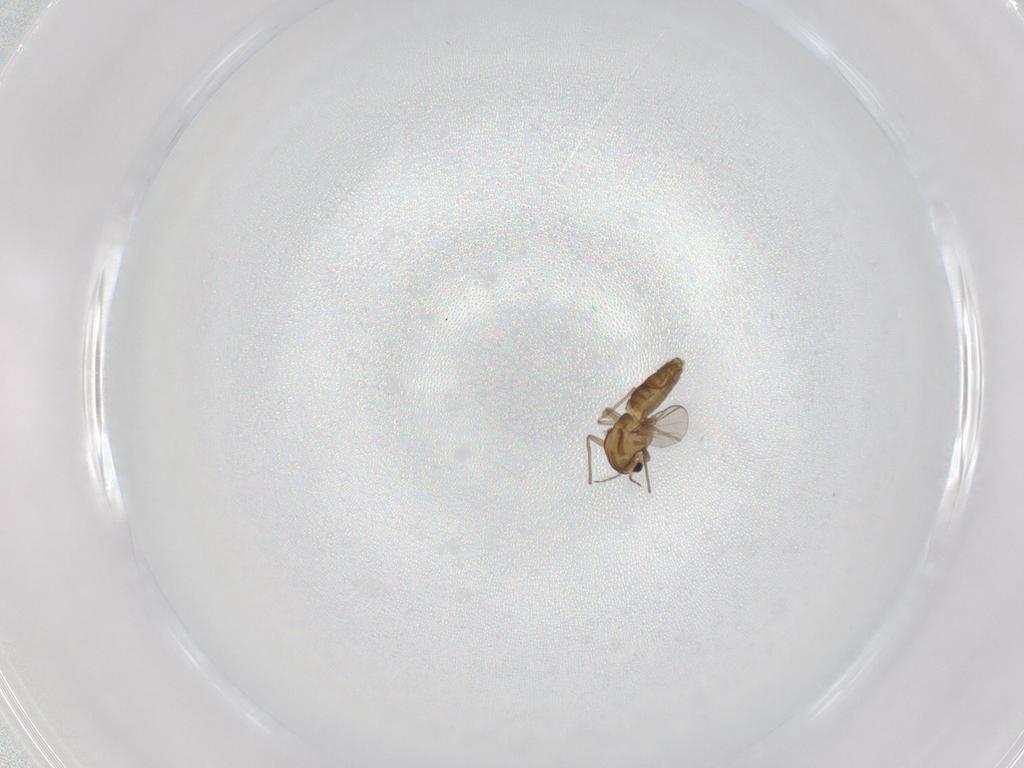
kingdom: Animalia
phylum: Arthropoda
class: Insecta
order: Diptera
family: Chironomidae
